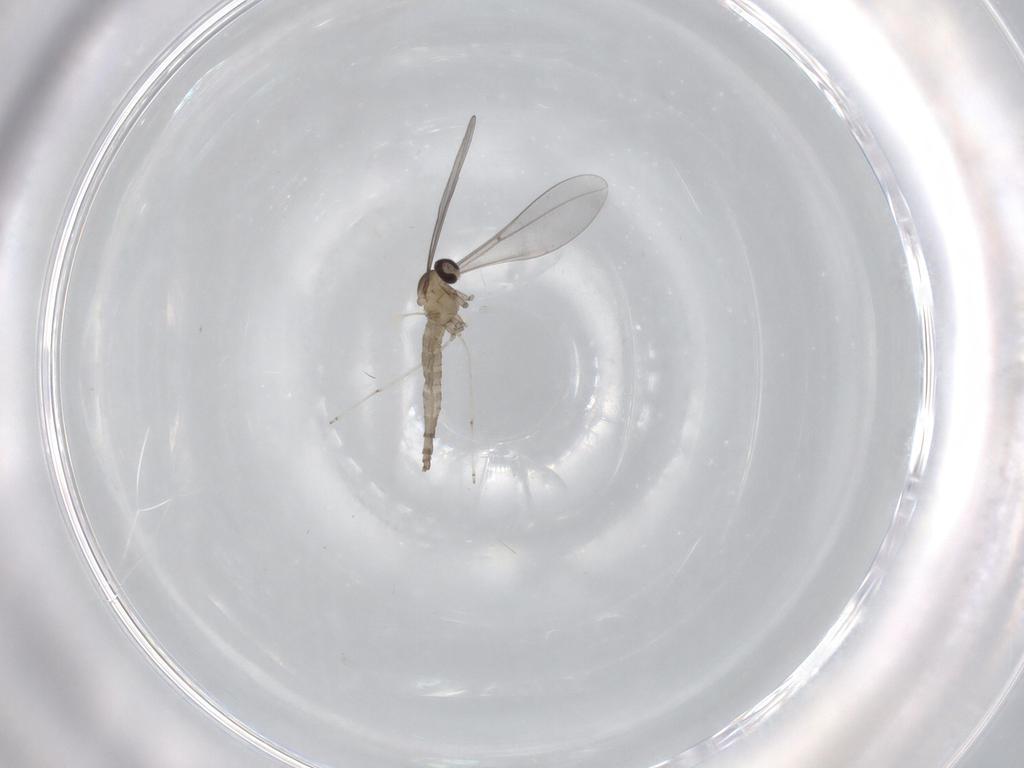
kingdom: Animalia
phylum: Arthropoda
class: Insecta
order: Diptera
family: Cecidomyiidae
